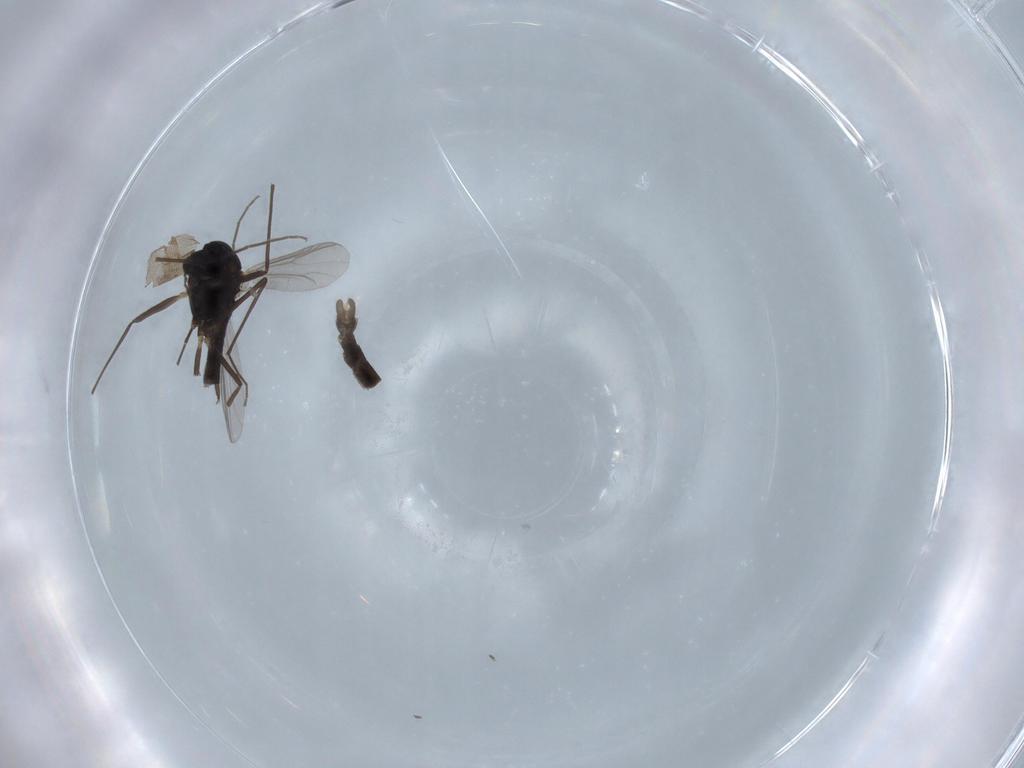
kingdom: Animalia
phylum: Arthropoda
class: Insecta
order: Diptera
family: Chironomidae
